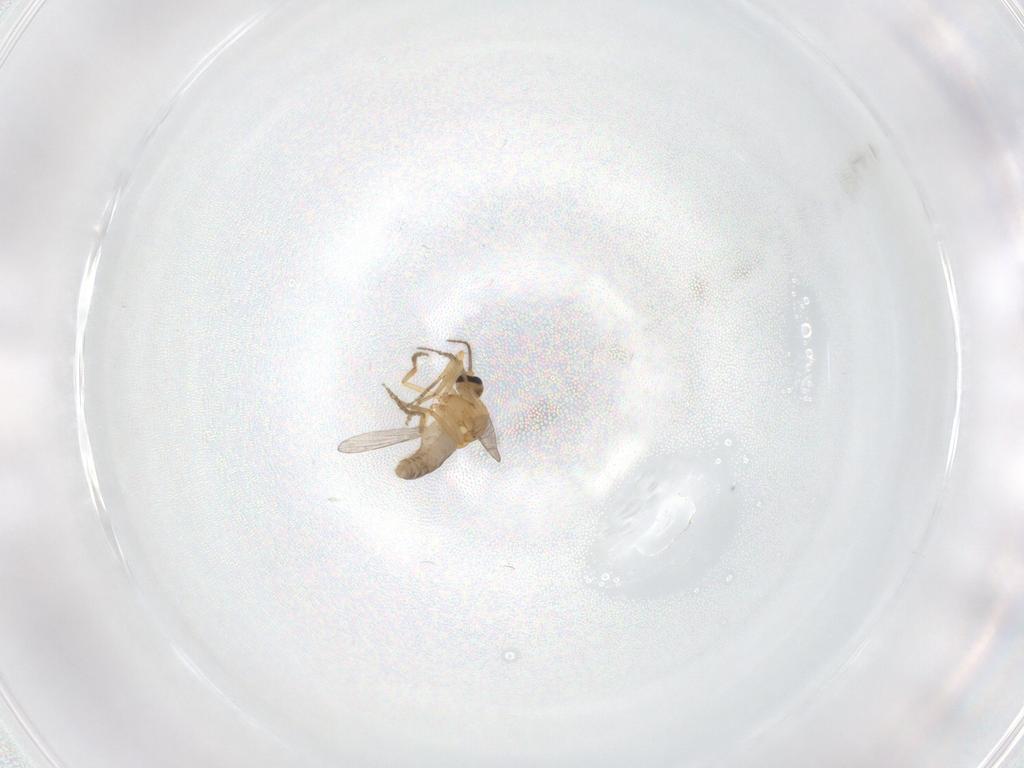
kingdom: Animalia
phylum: Arthropoda
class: Insecta
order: Diptera
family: Ceratopogonidae
